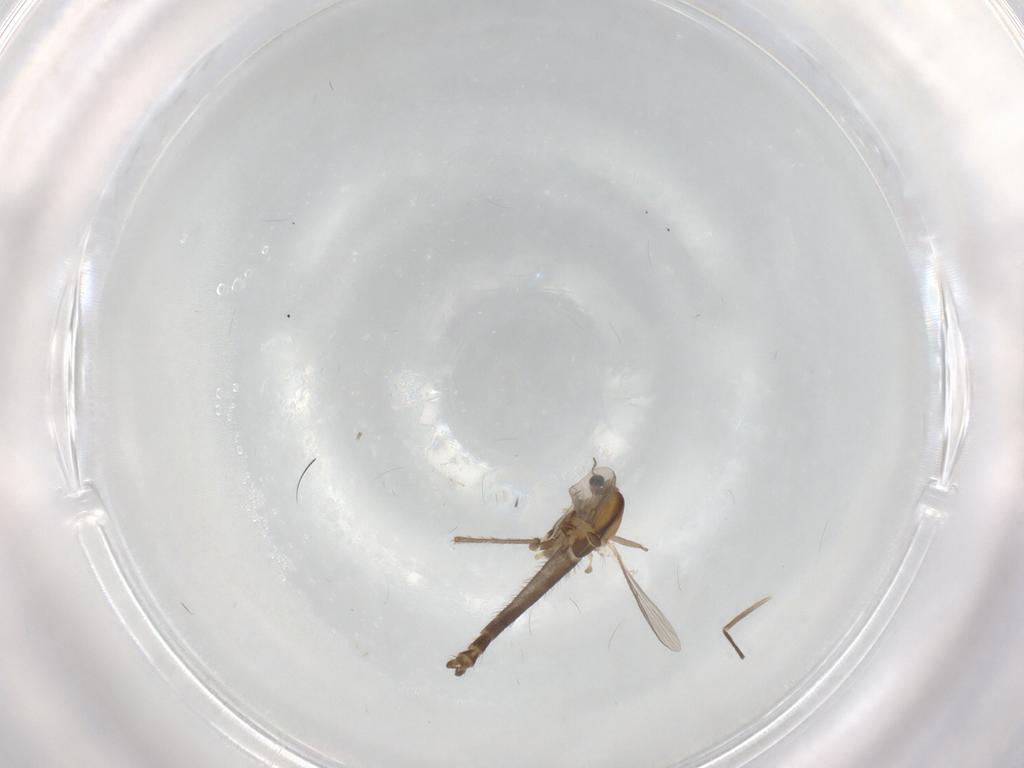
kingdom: Animalia
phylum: Arthropoda
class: Insecta
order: Diptera
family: Chironomidae
